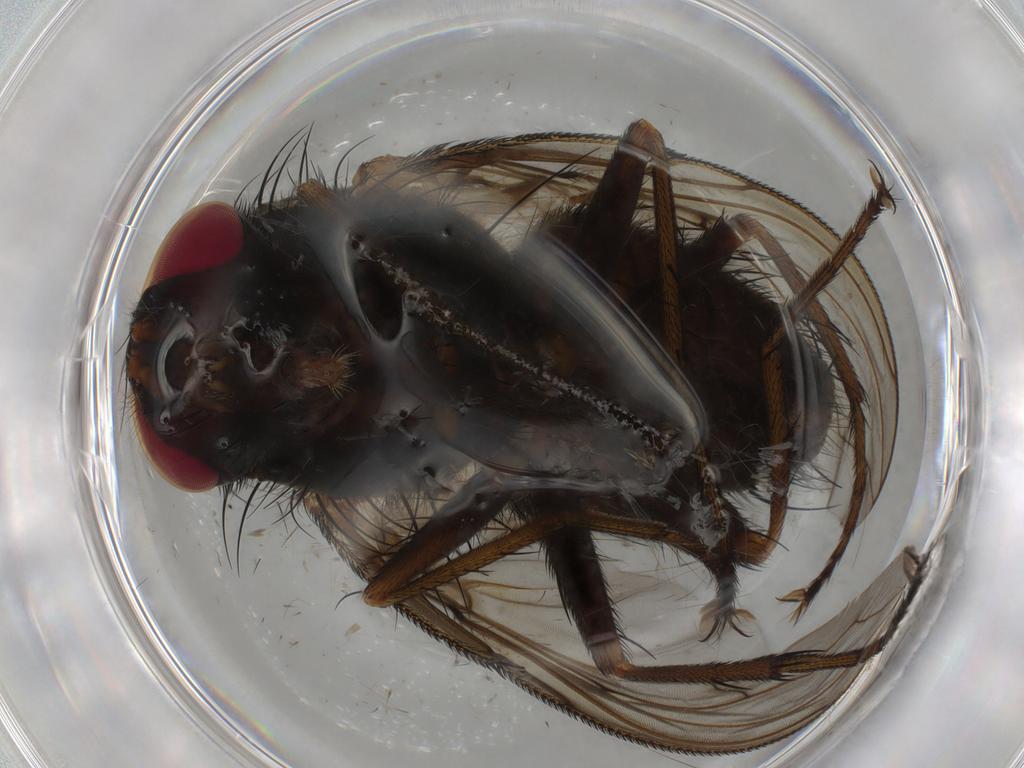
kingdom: Animalia
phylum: Arthropoda
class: Insecta
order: Diptera
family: Tachinidae
